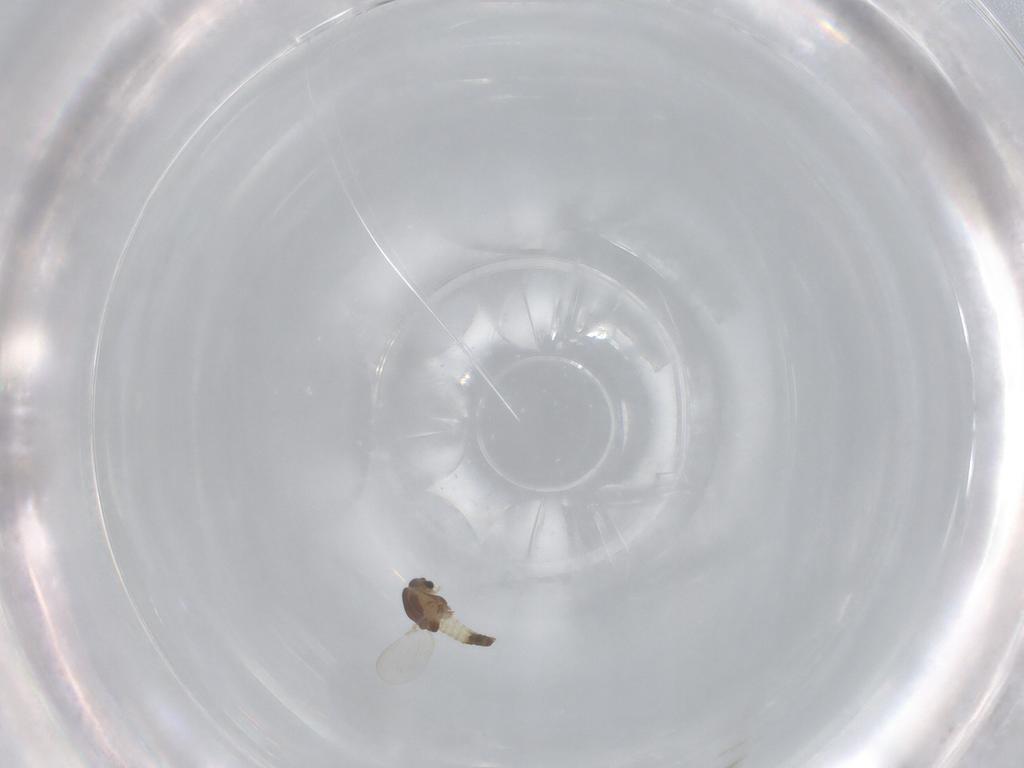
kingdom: Animalia
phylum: Arthropoda
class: Insecta
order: Diptera
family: Chironomidae
